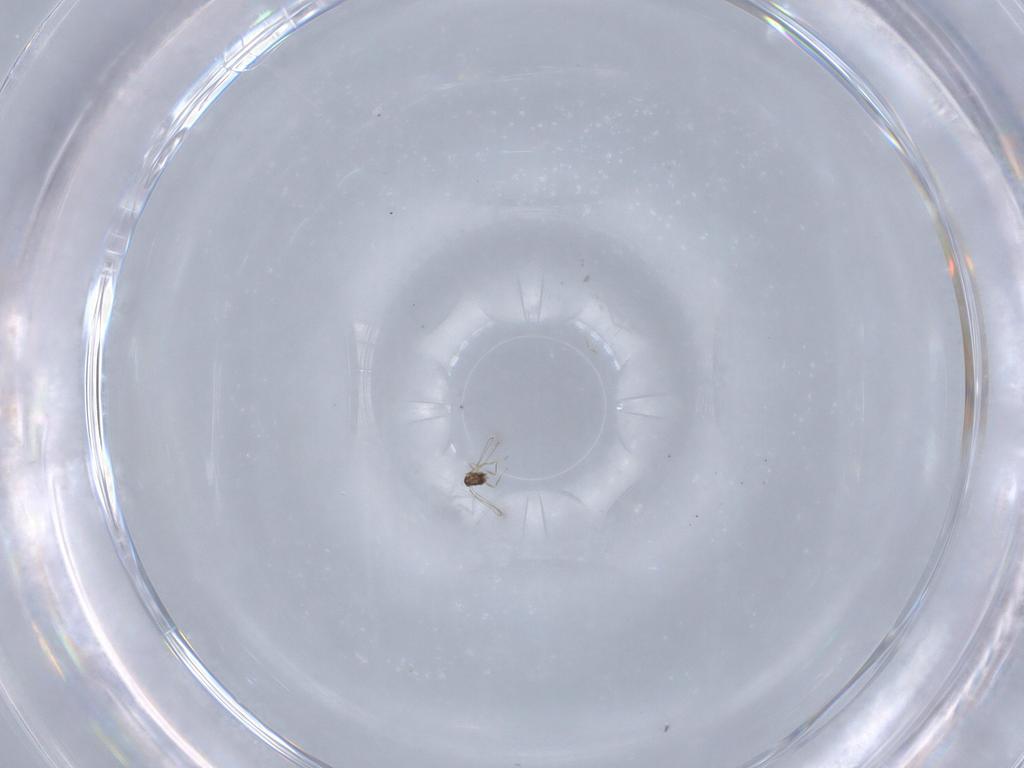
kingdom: Animalia
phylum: Arthropoda
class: Insecta
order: Hymenoptera
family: Mymaridae
